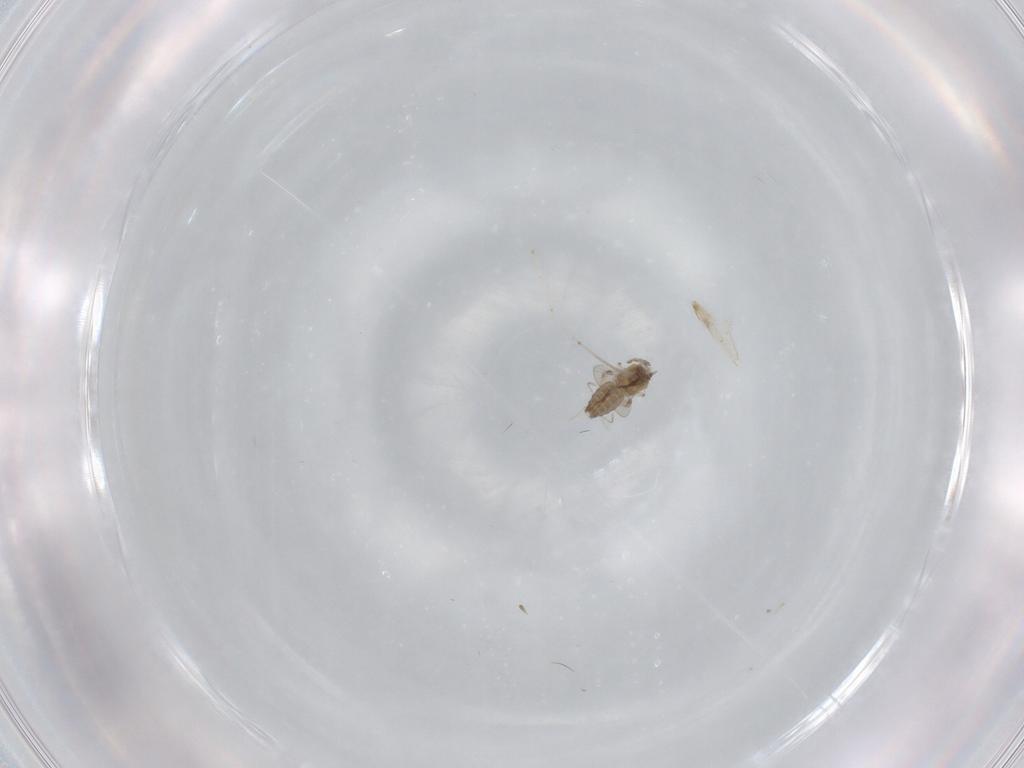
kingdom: Animalia
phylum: Arthropoda
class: Insecta
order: Diptera
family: Ceratopogonidae
